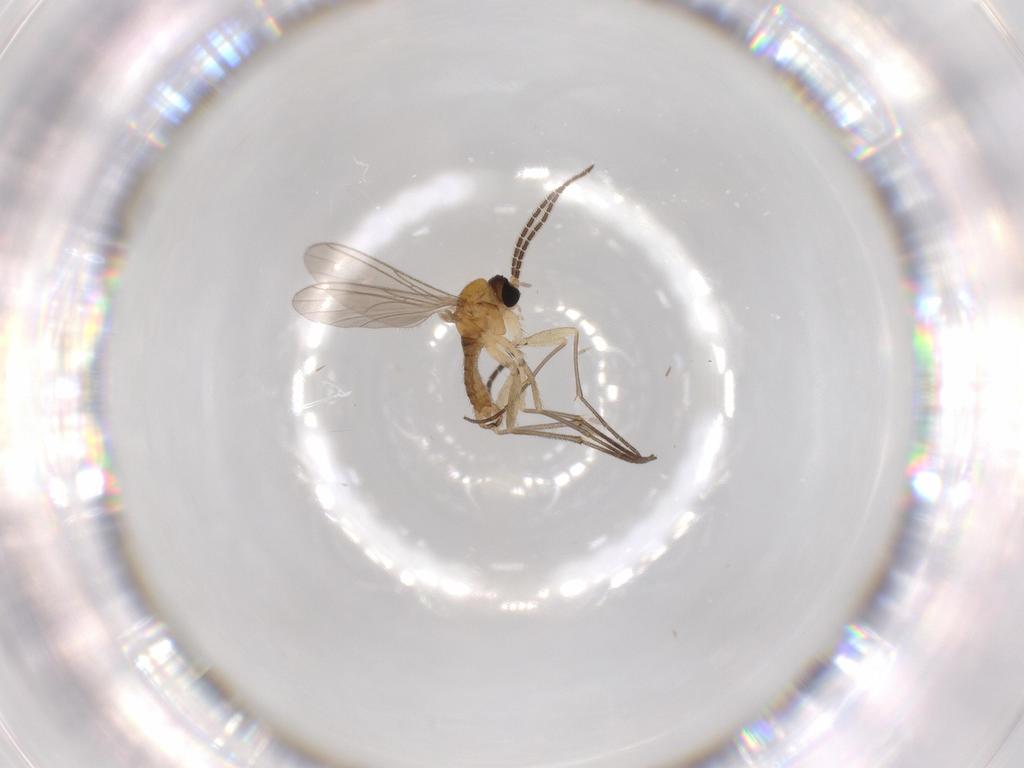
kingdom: Animalia
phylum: Arthropoda
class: Insecta
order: Diptera
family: Sciaridae
